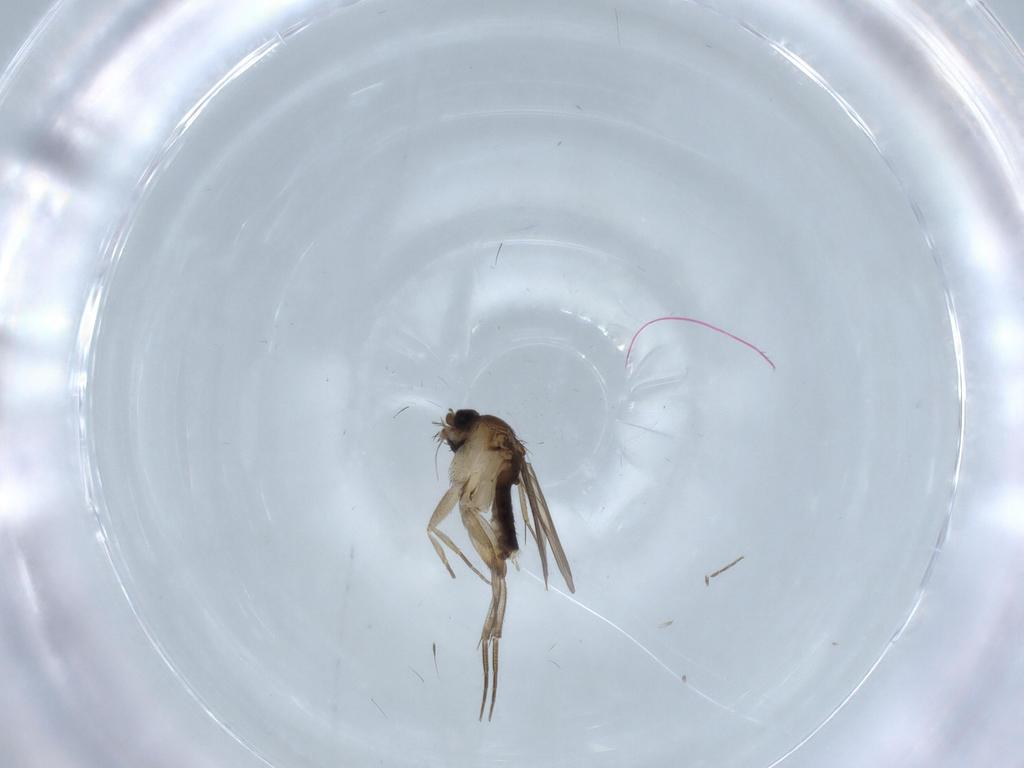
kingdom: Animalia
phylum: Arthropoda
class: Insecta
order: Diptera
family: Phoridae
